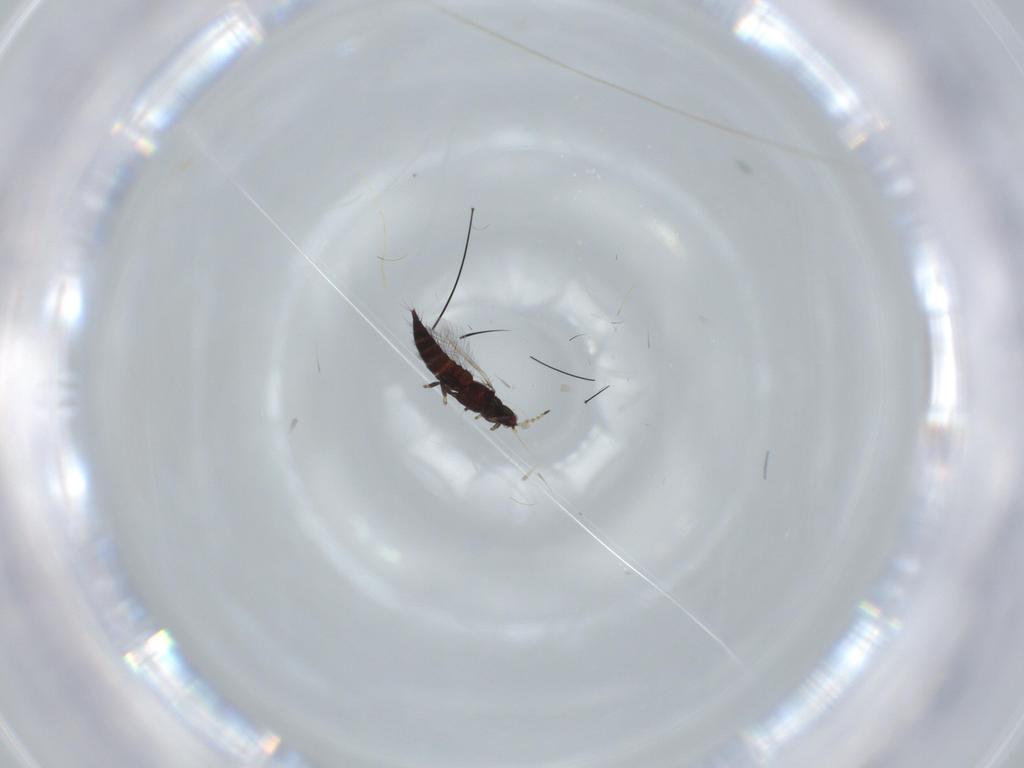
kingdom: Animalia
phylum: Arthropoda
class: Insecta
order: Thysanoptera
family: Phlaeothripidae
